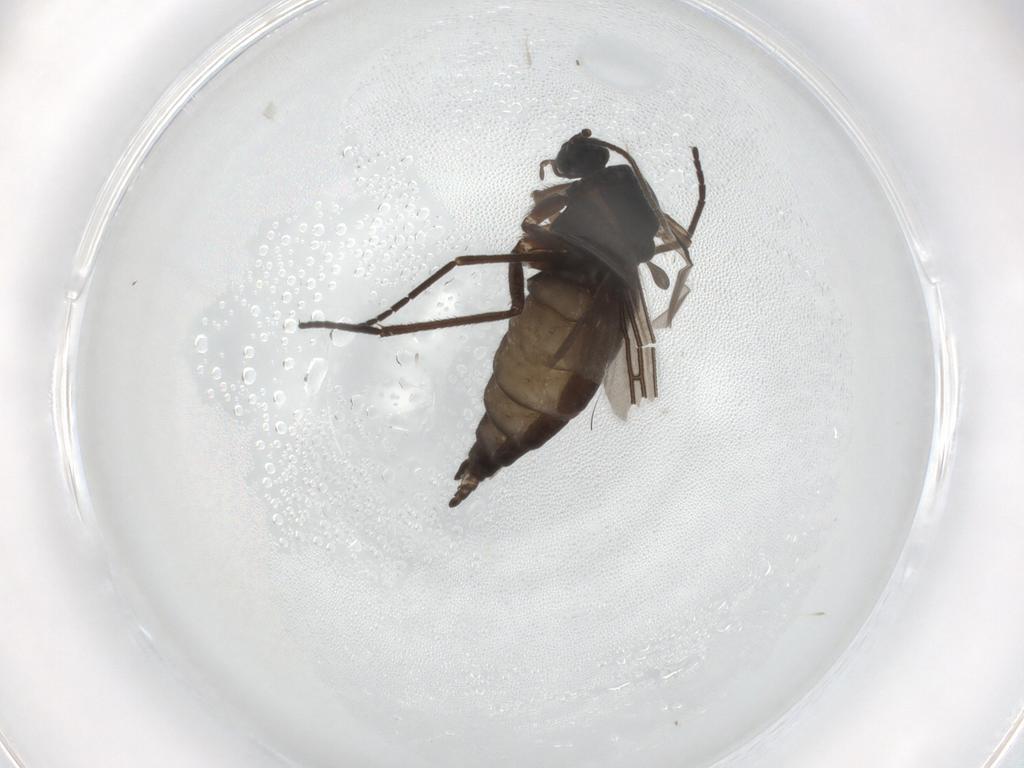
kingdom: Animalia
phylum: Arthropoda
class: Insecta
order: Diptera
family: Sciaridae
